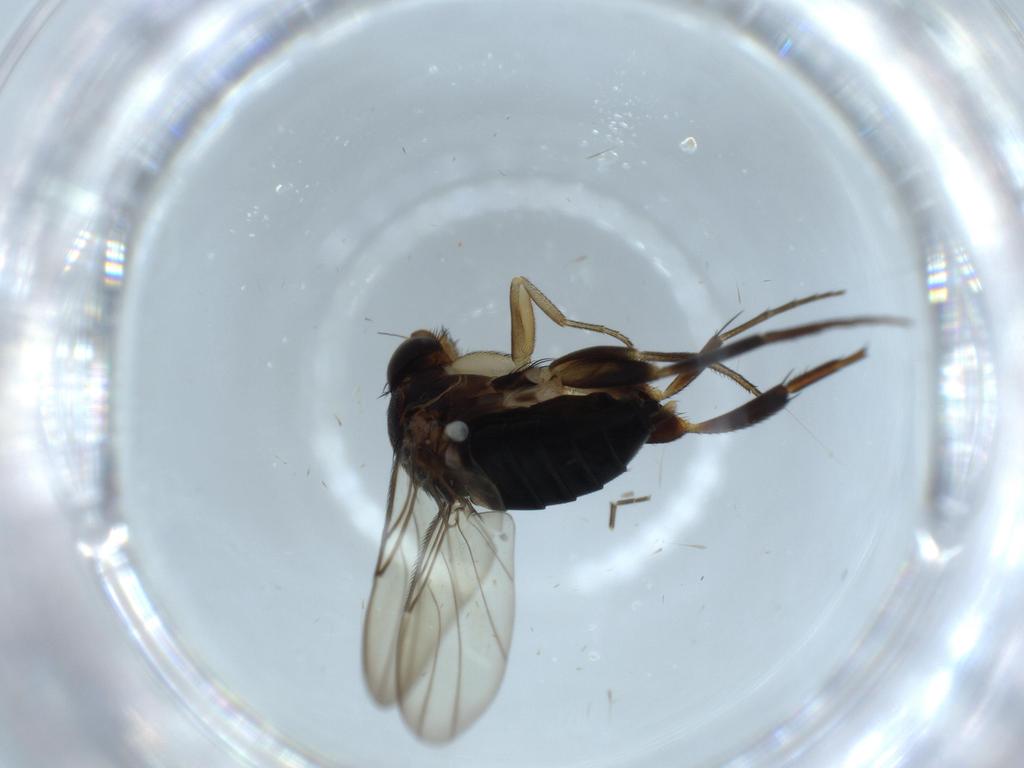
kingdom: Animalia
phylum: Arthropoda
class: Insecta
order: Diptera
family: Phoridae
